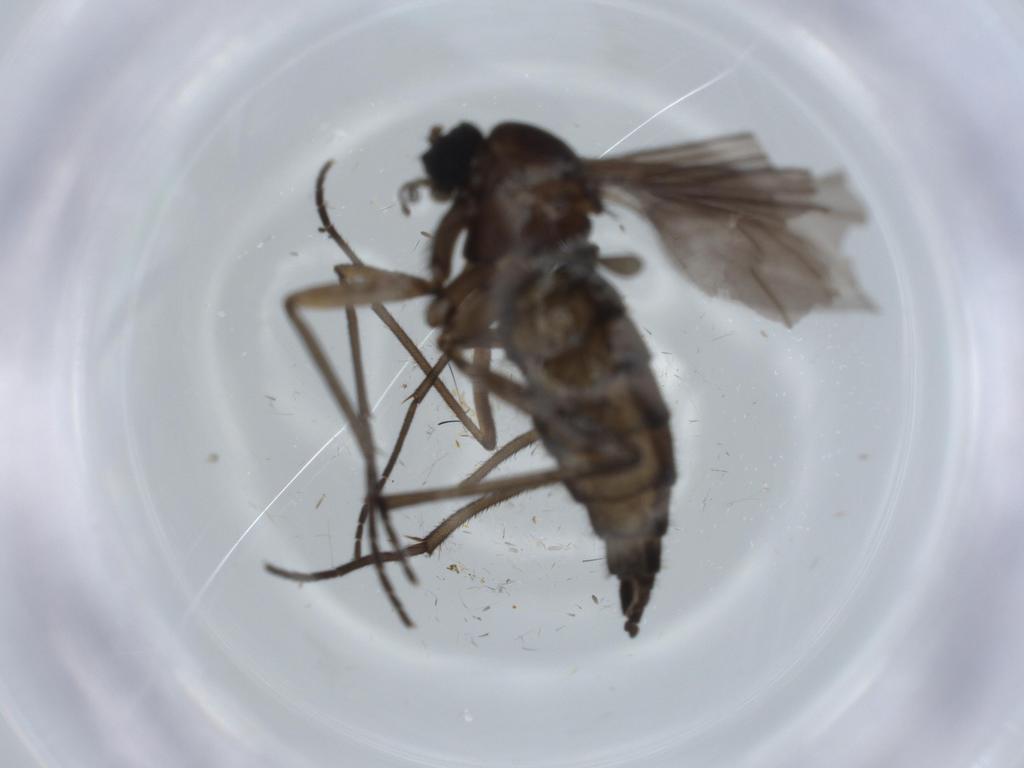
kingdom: Animalia
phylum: Arthropoda
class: Insecta
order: Diptera
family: Sciaridae
